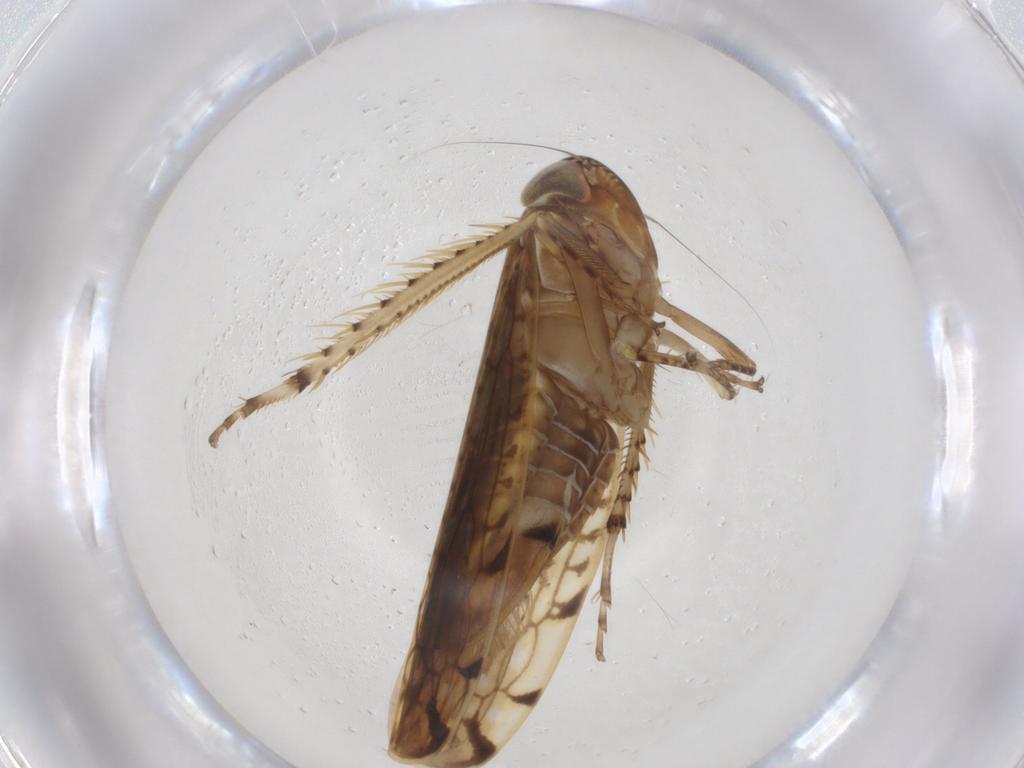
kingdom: Animalia
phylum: Arthropoda
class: Insecta
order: Diptera
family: Sciaridae
